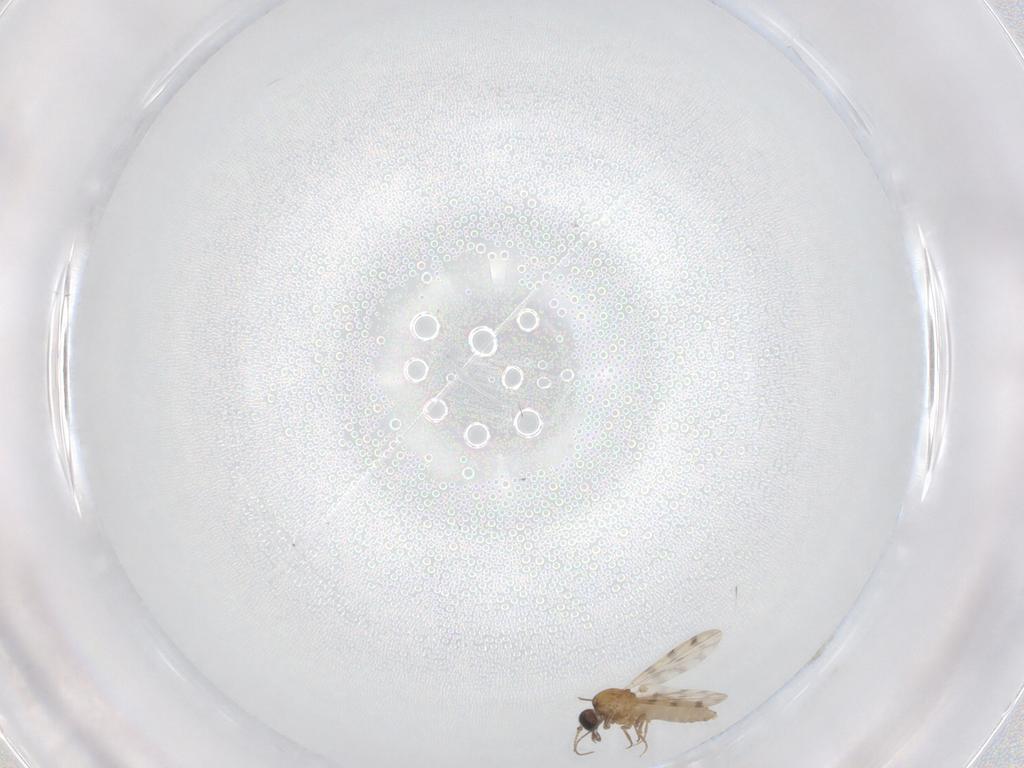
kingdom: Animalia
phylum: Arthropoda
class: Insecta
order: Diptera
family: Ceratopogonidae
